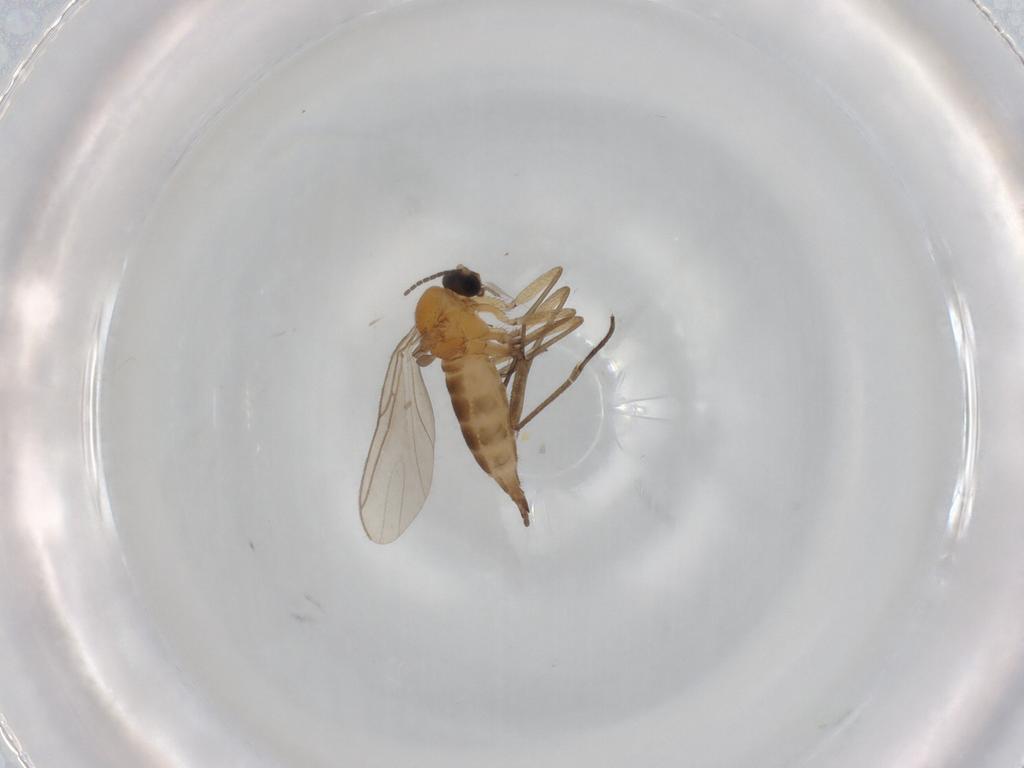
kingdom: Animalia
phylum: Arthropoda
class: Insecta
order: Diptera
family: Sciaridae
